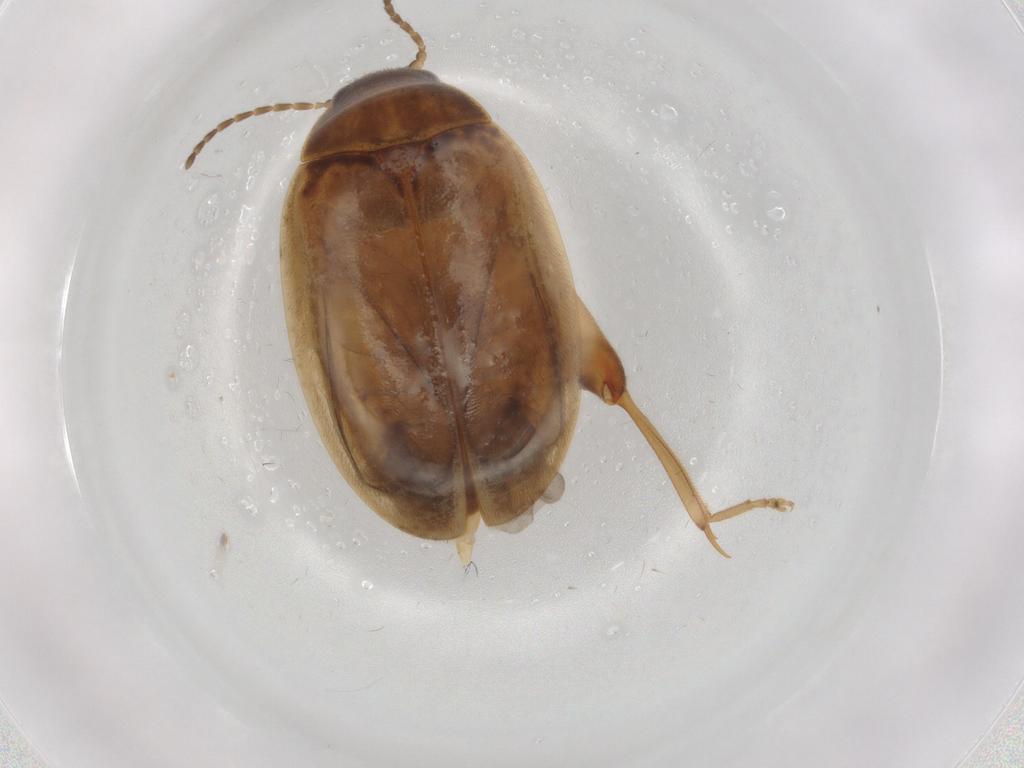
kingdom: Animalia
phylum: Arthropoda
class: Insecta
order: Coleoptera
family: Scirtidae
